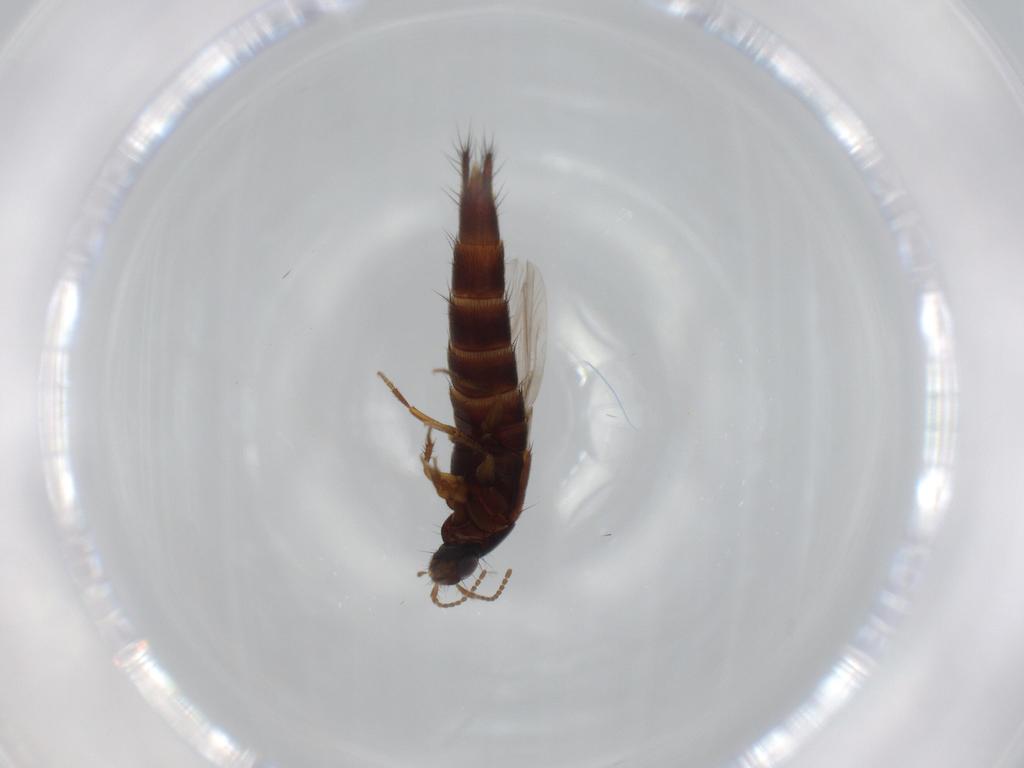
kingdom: Animalia
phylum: Arthropoda
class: Insecta
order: Coleoptera
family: Staphylinidae
